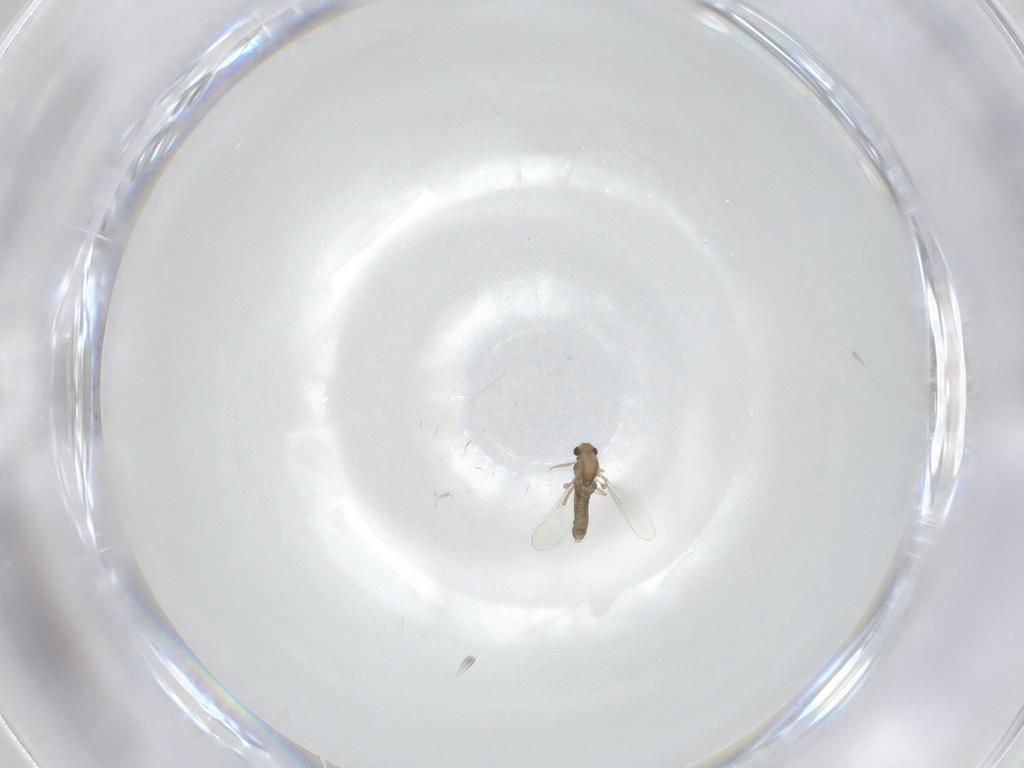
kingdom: Animalia
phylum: Arthropoda
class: Insecta
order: Diptera
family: Chironomidae
